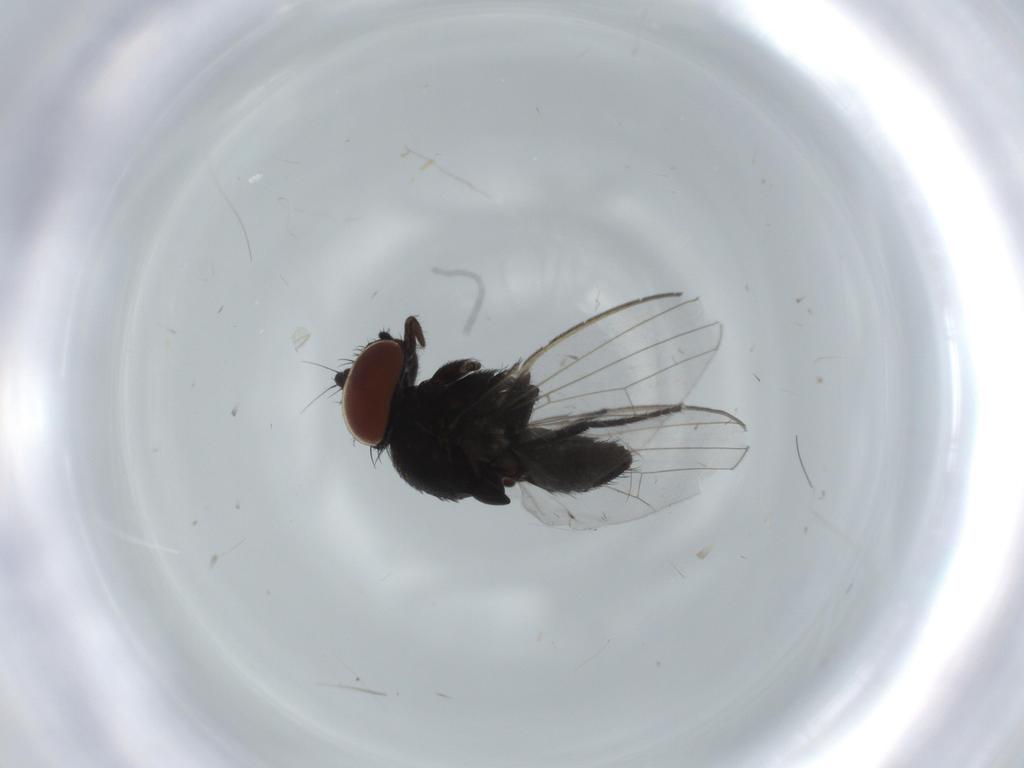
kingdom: Animalia
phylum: Arthropoda
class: Insecta
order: Diptera
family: Milichiidae
